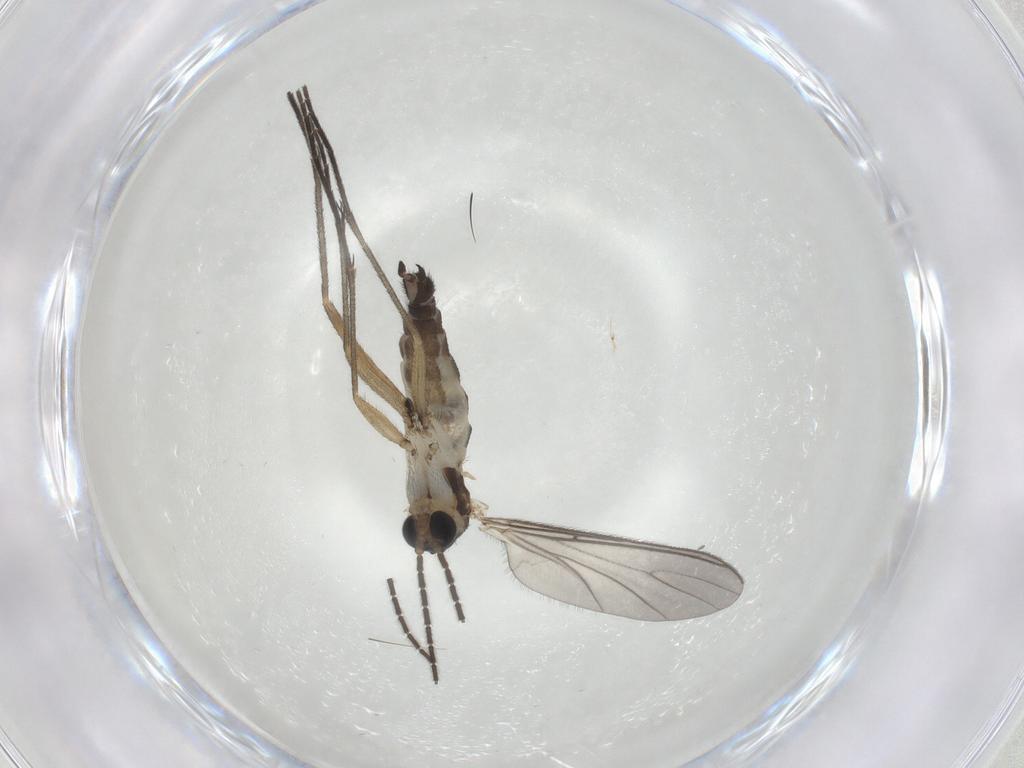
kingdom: Animalia
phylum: Arthropoda
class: Insecta
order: Diptera
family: Sciaridae
